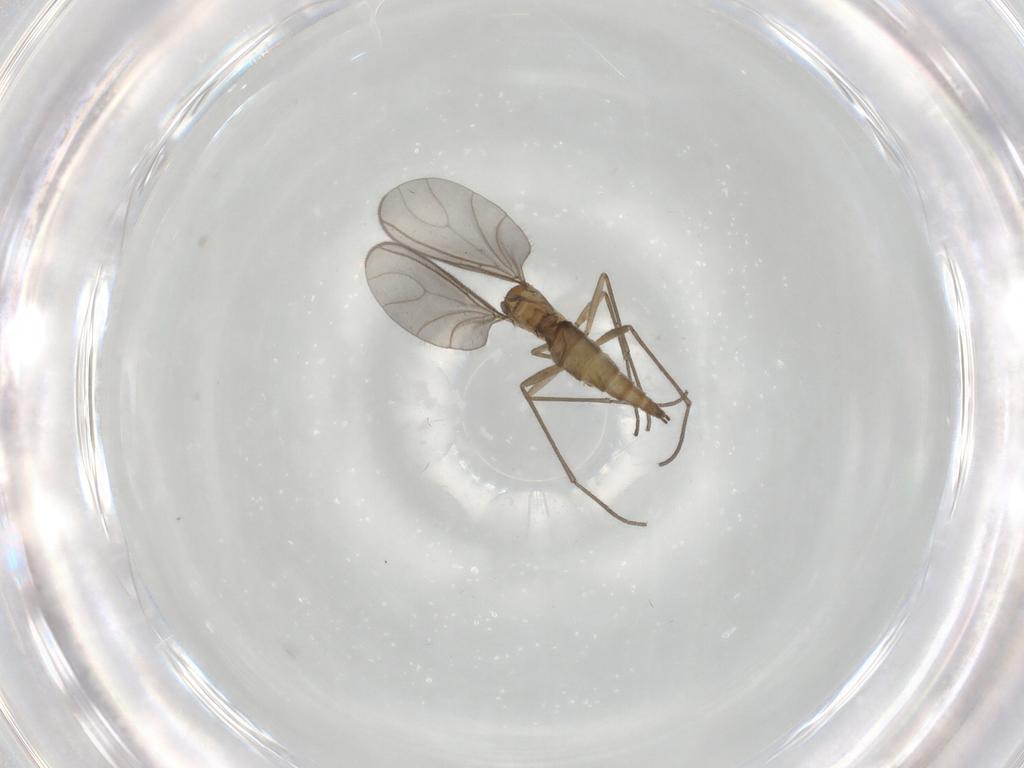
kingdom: Animalia
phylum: Arthropoda
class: Insecta
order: Diptera
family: Sciaridae
